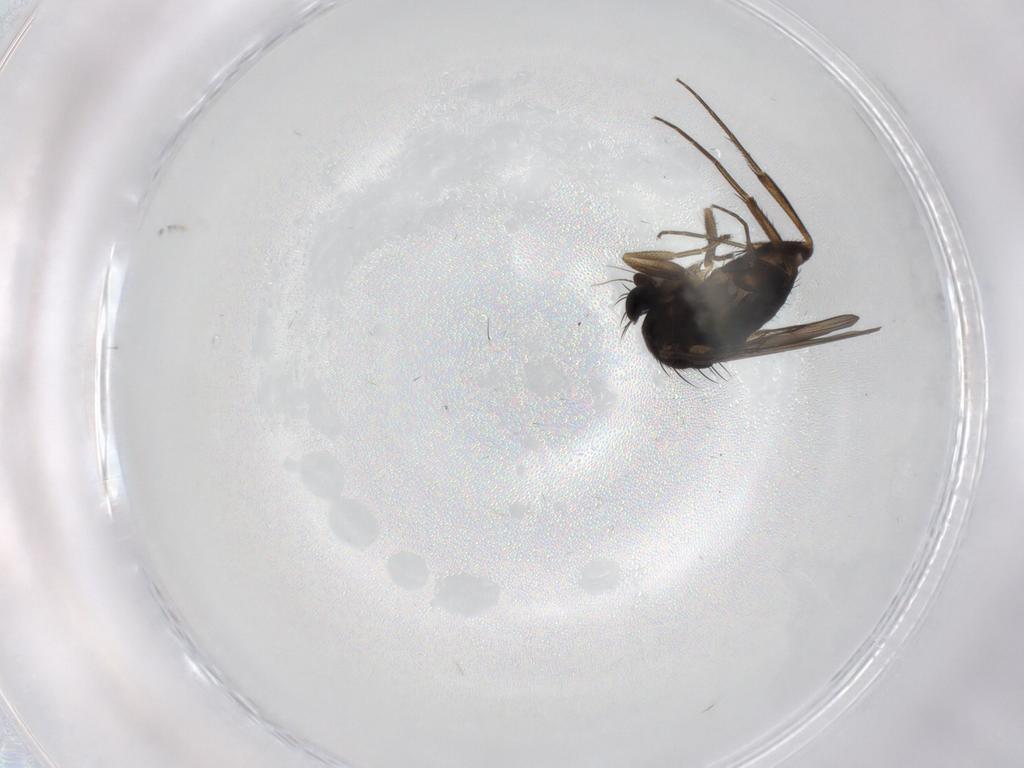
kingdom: Animalia
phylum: Arthropoda
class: Insecta
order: Diptera
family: Phoridae
